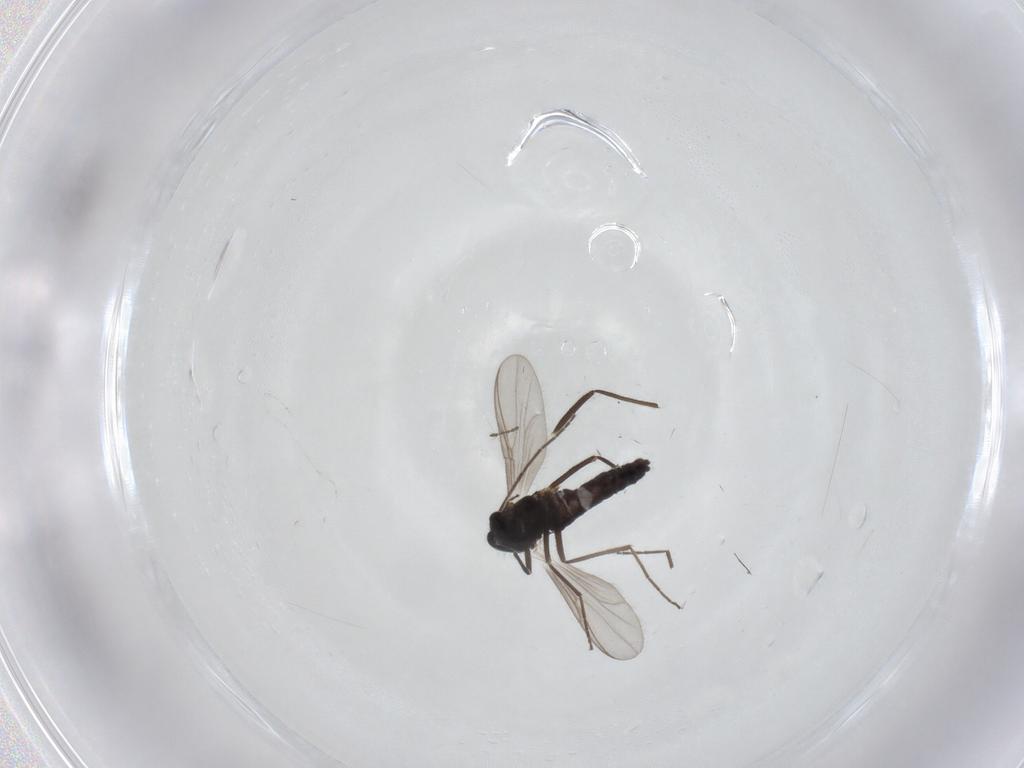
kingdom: Animalia
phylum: Arthropoda
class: Insecta
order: Diptera
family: Chironomidae
